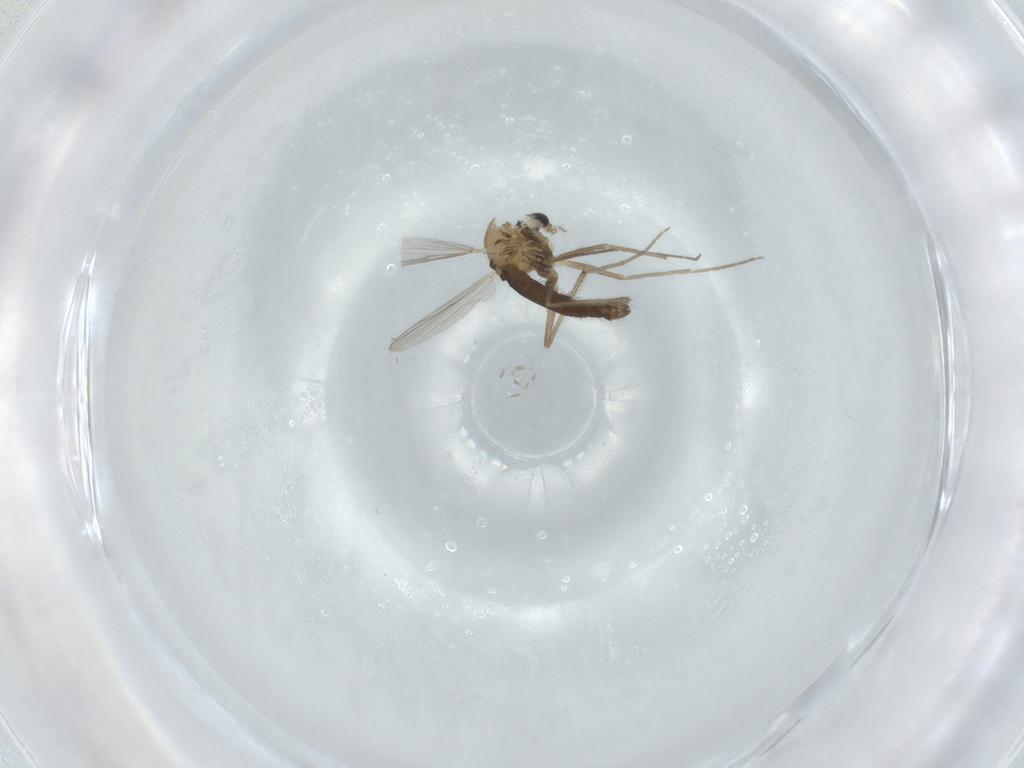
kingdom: Animalia
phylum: Arthropoda
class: Insecta
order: Diptera
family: Chironomidae
